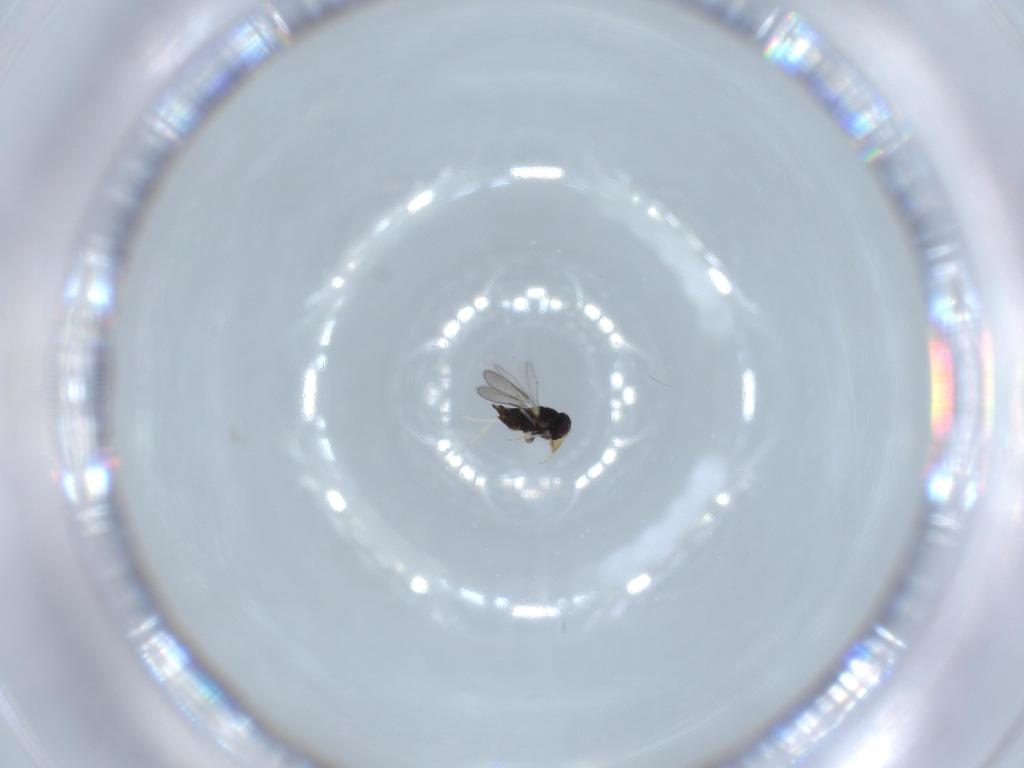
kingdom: Animalia
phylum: Arthropoda
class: Insecta
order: Hymenoptera
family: Aphelinidae
